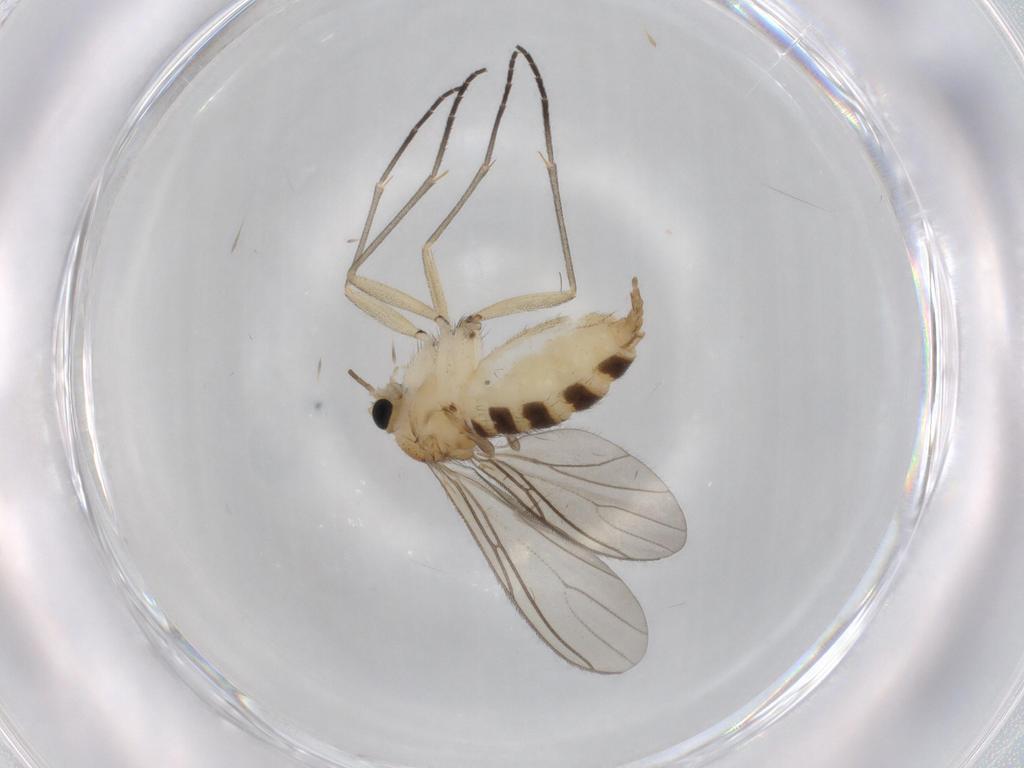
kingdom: Animalia
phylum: Arthropoda
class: Insecta
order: Diptera
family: Sciaridae
